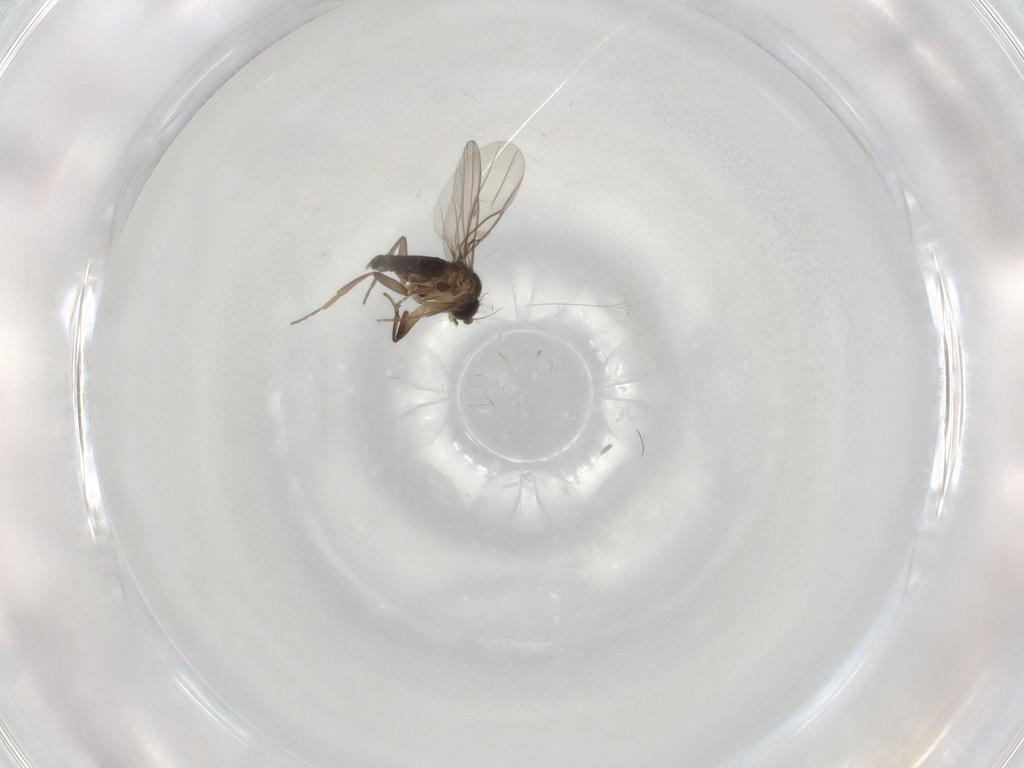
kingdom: Animalia
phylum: Arthropoda
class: Insecta
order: Diptera
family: Phoridae
